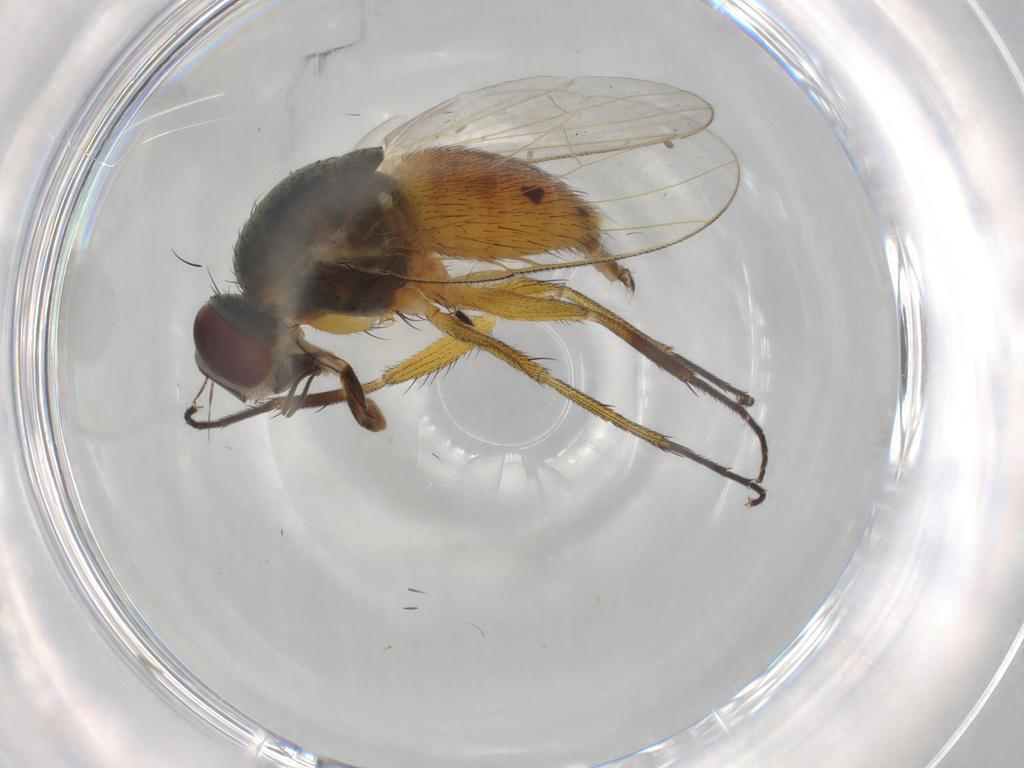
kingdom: Animalia
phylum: Arthropoda
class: Insecta
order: Diptera
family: Muscidae
